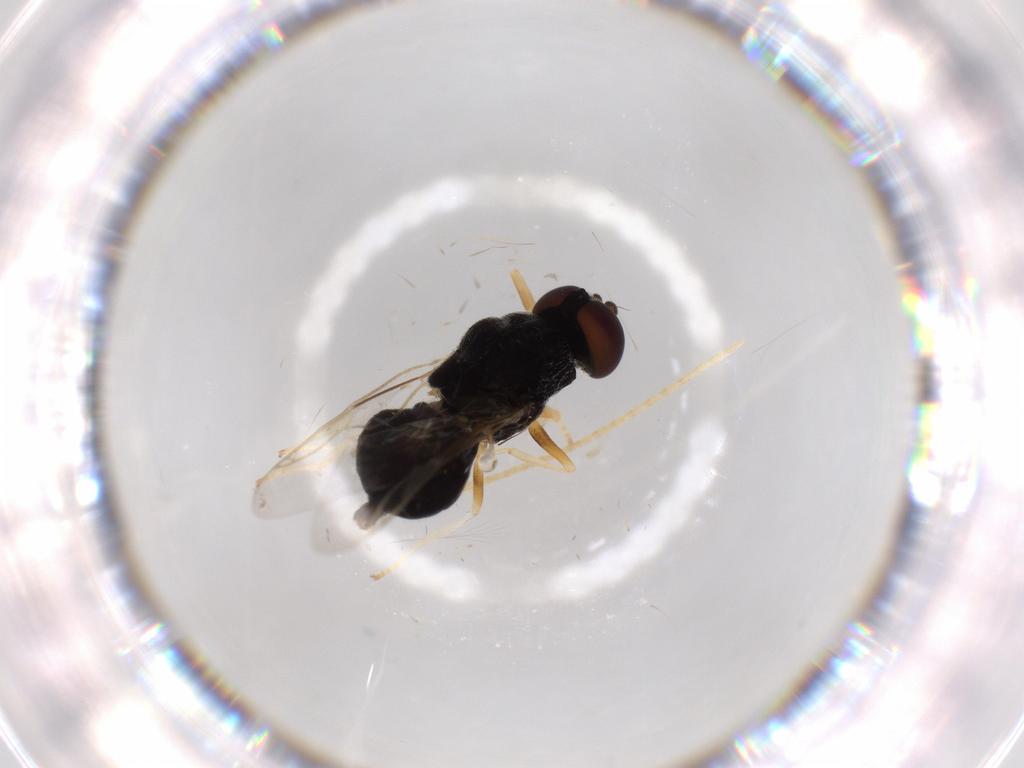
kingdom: Animalia
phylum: Arthropoda
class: Insecta
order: Diptera
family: Stratiomyidae
